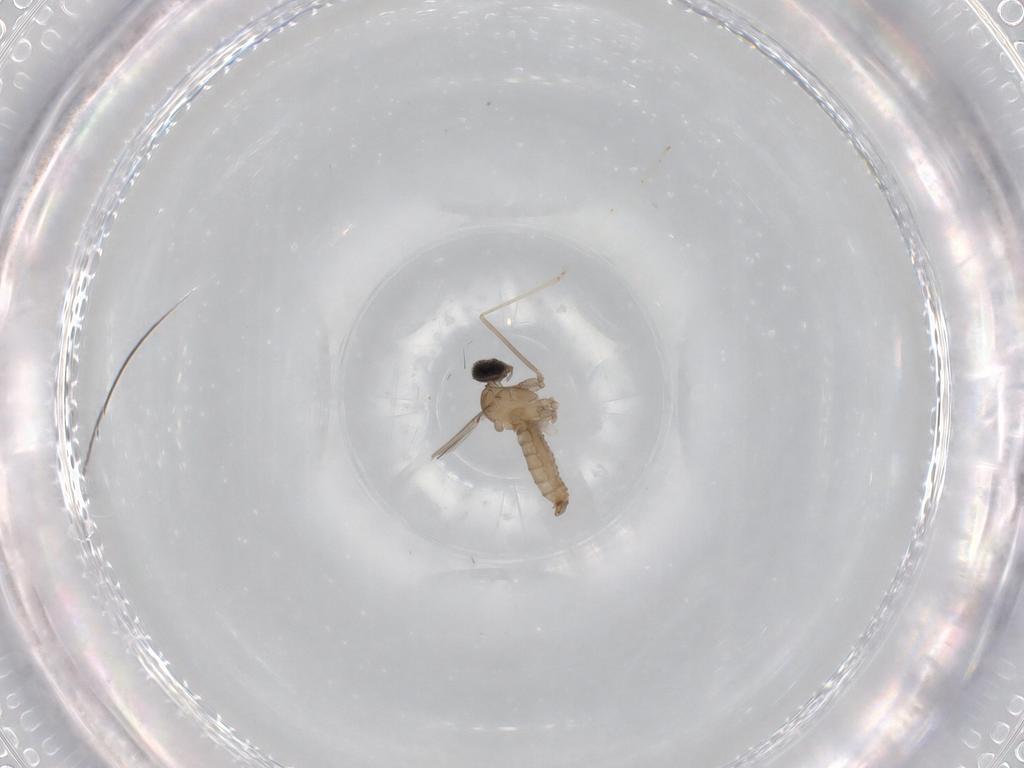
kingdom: Animalia
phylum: Arthropoda
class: Insecta
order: Diptera
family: Cecidomyiidae
